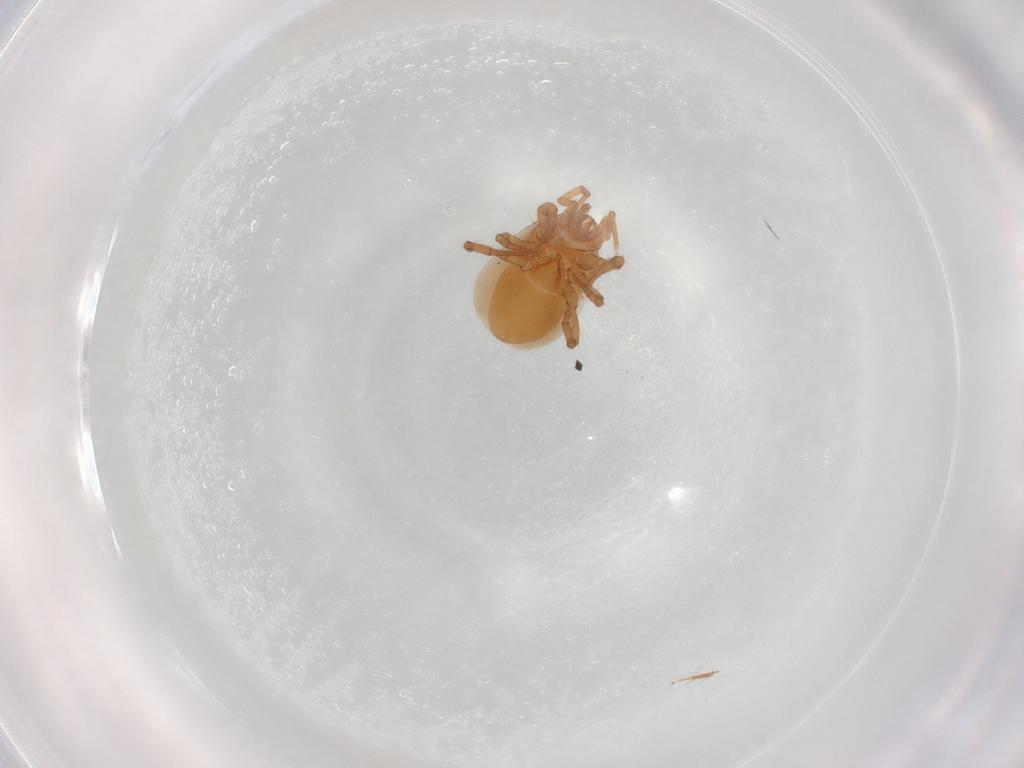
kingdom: Animalia
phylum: Arthropoda
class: Arachnida
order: Mesostigmata
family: Parasitidae
